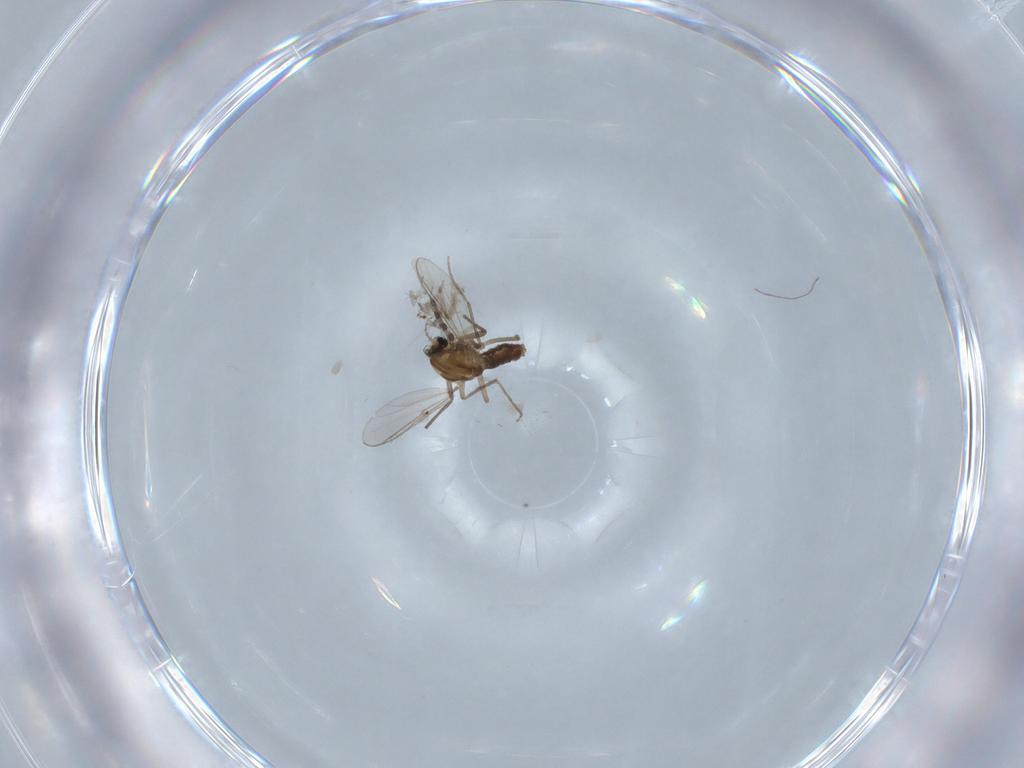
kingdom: Animalia
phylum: Arthropoda
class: Insecta
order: Diptera
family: Chironomidae
